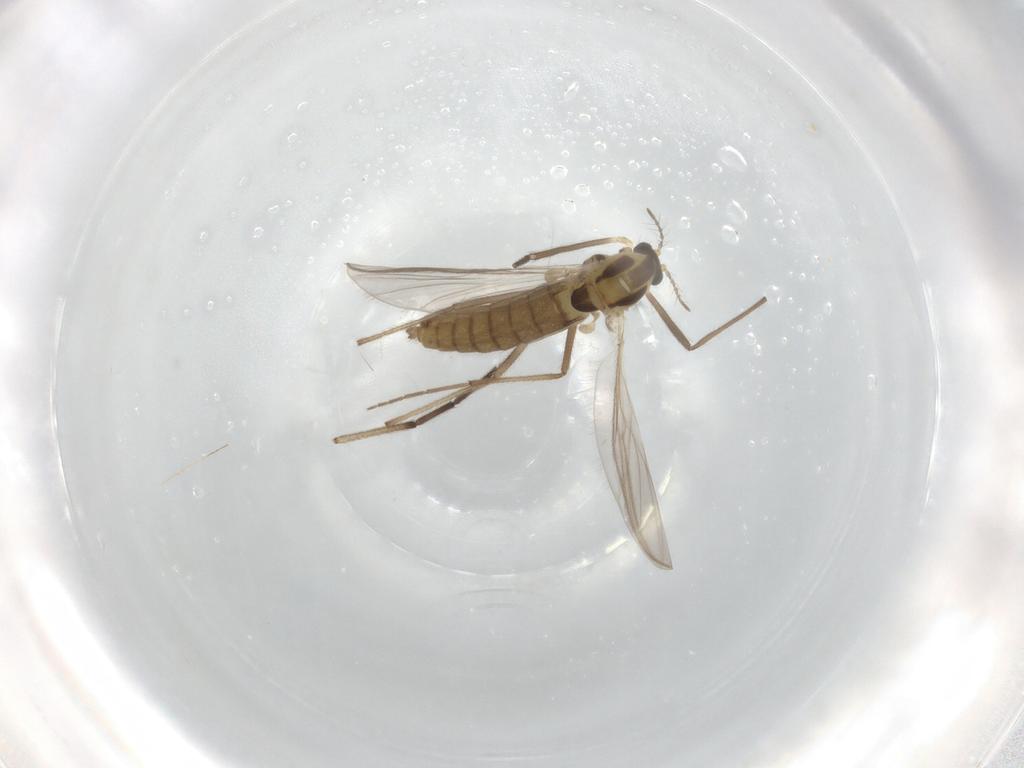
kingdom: Animalia
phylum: Arthropoda
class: Insecta
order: Diptera
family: Chironomidae
